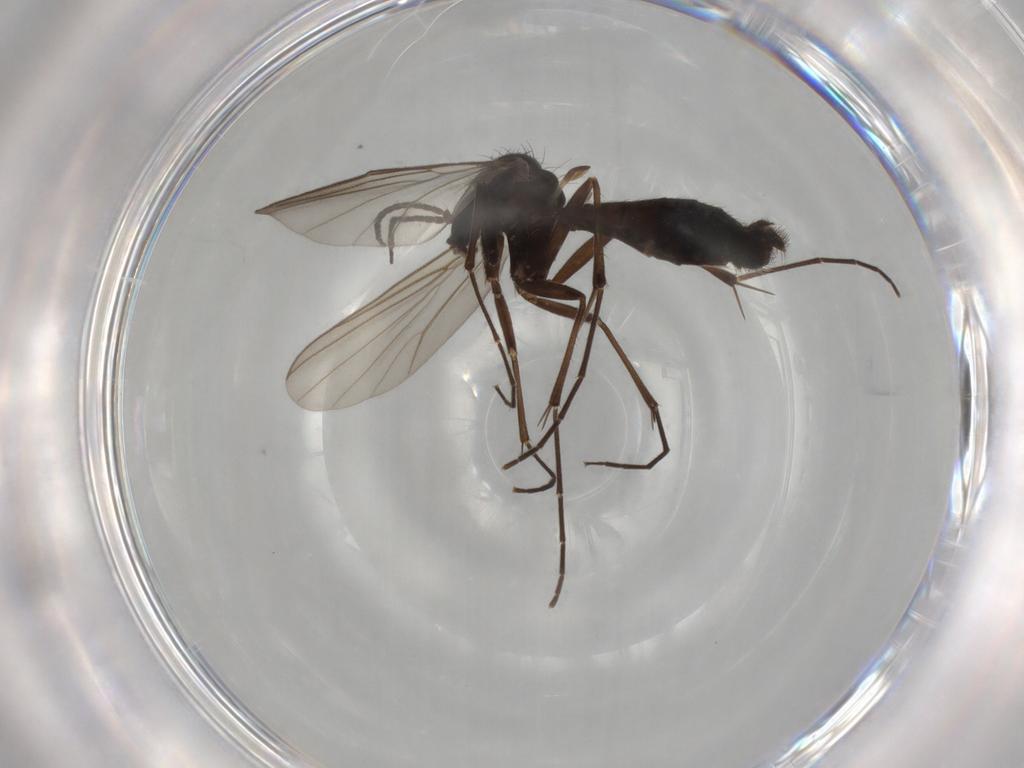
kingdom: Animalia
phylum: Arthropoda
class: Insecta
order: Diptera
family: Mycetophilidae
